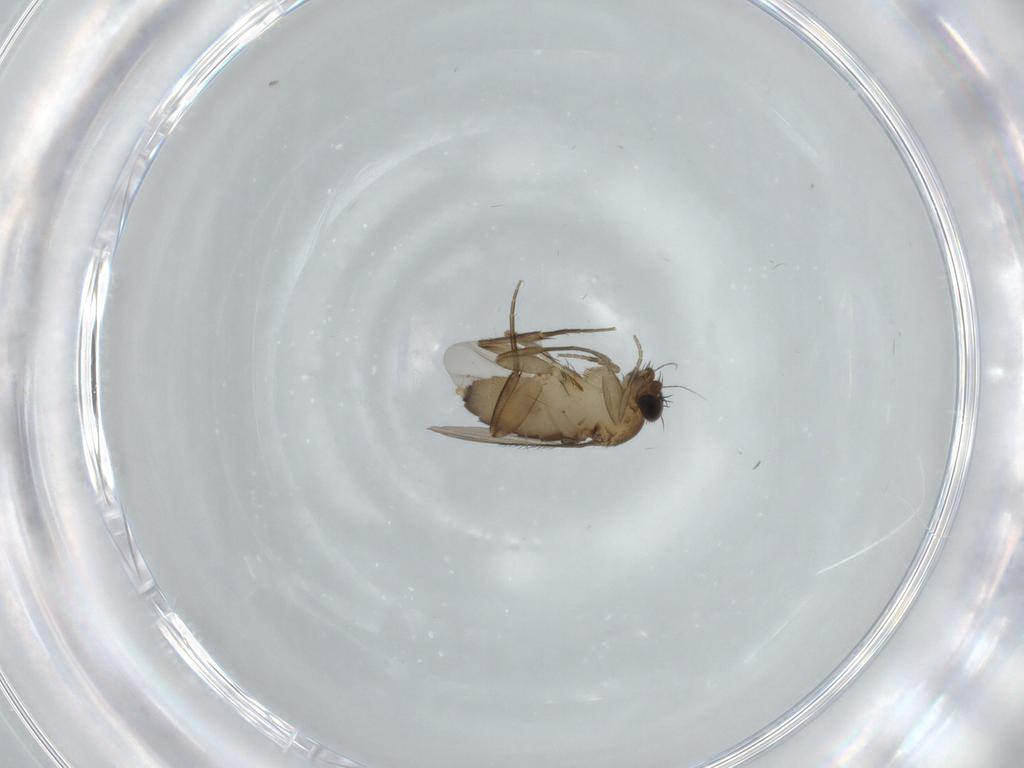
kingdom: Animalia
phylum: Arthropoda
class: Insecta
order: Diptera
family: Phoridae
